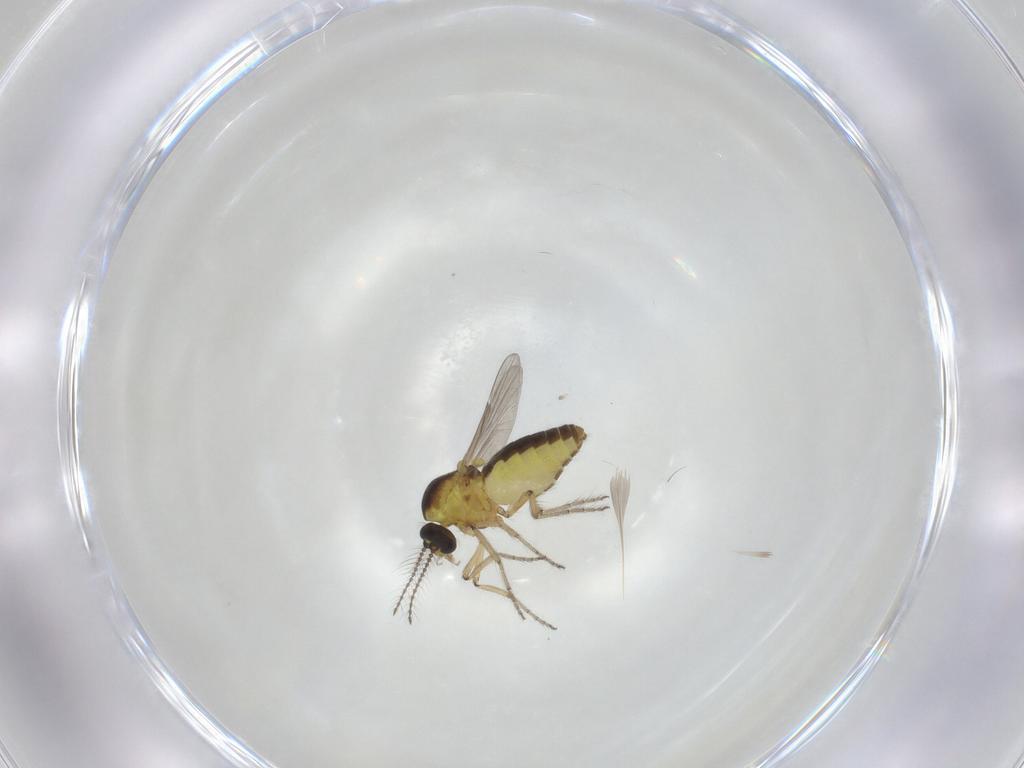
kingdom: Animalia
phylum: Arthropoda
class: Insecta
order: Diptera
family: Ceratopogonidae
